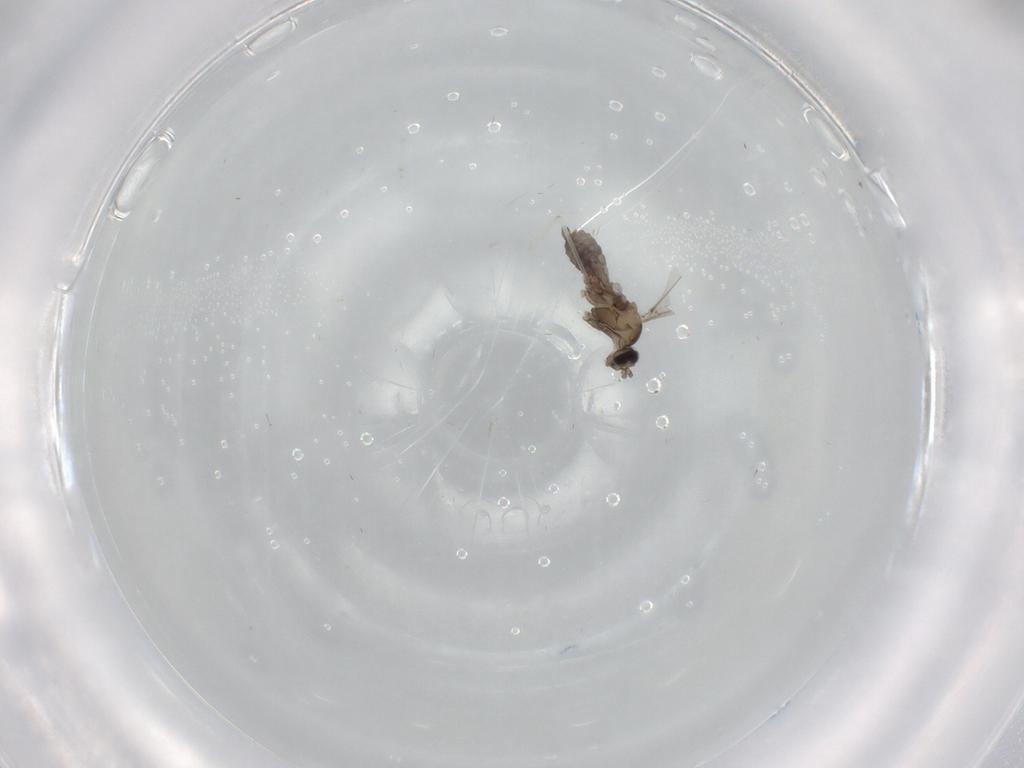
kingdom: Animalia
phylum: Arthropoda
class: Insecta
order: Diptera
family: Cecidomyiidae
